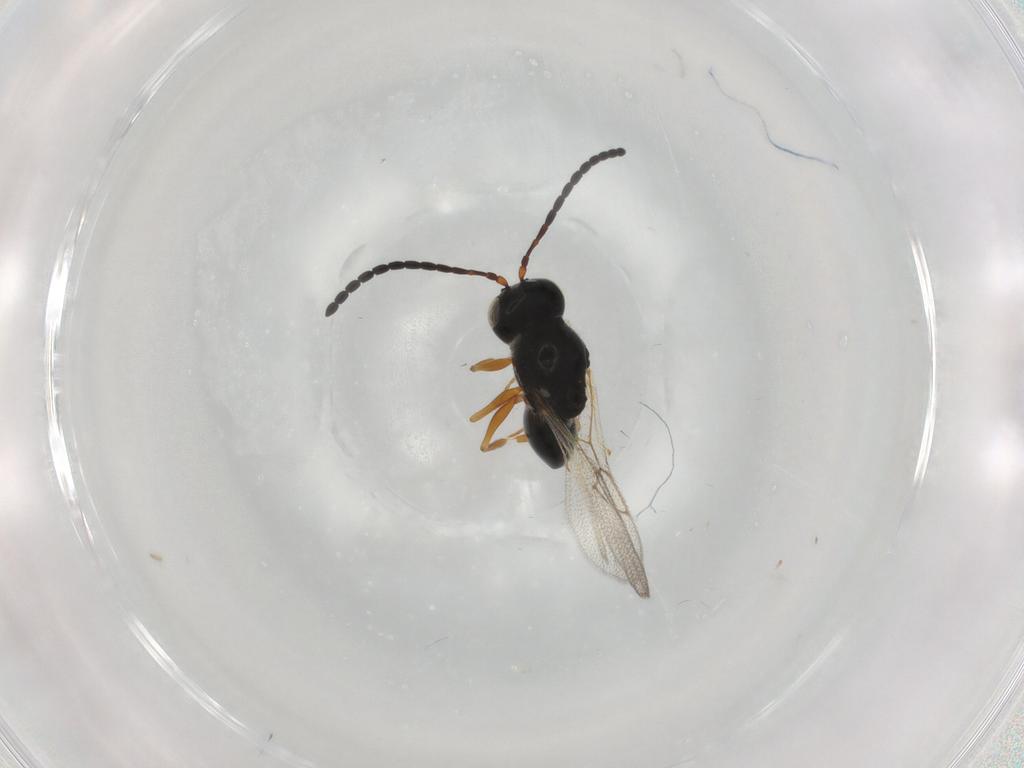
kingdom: Animalia
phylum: Arthropoda
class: Insecta
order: Hymenoptera
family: Figitidae
